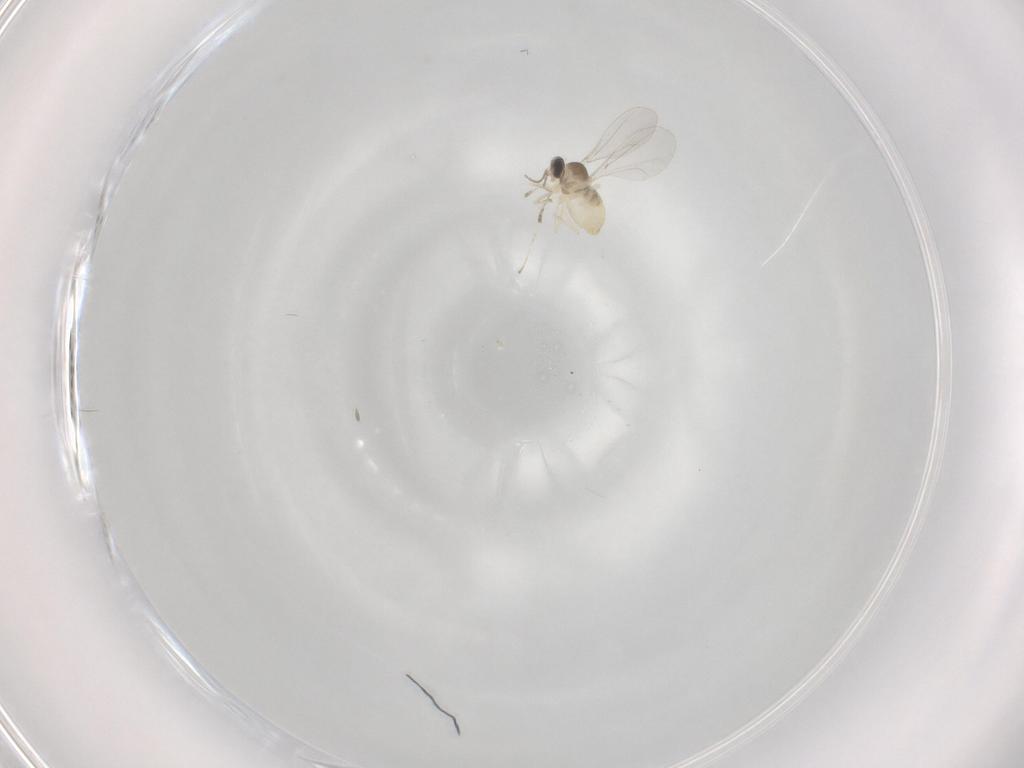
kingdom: Animalia
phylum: Arthropoda
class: Insecta
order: Diptera
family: Cecidomyiidae
